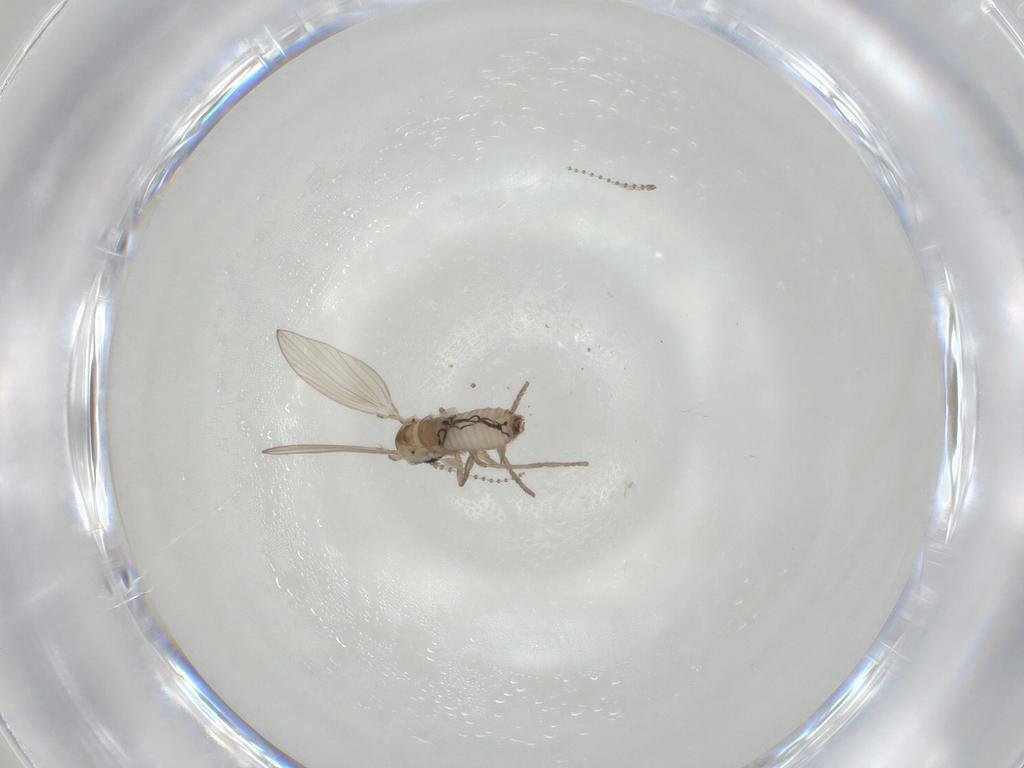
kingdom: Animalia
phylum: Arthropoda
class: Insecta
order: Diptera
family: Psychodidae
